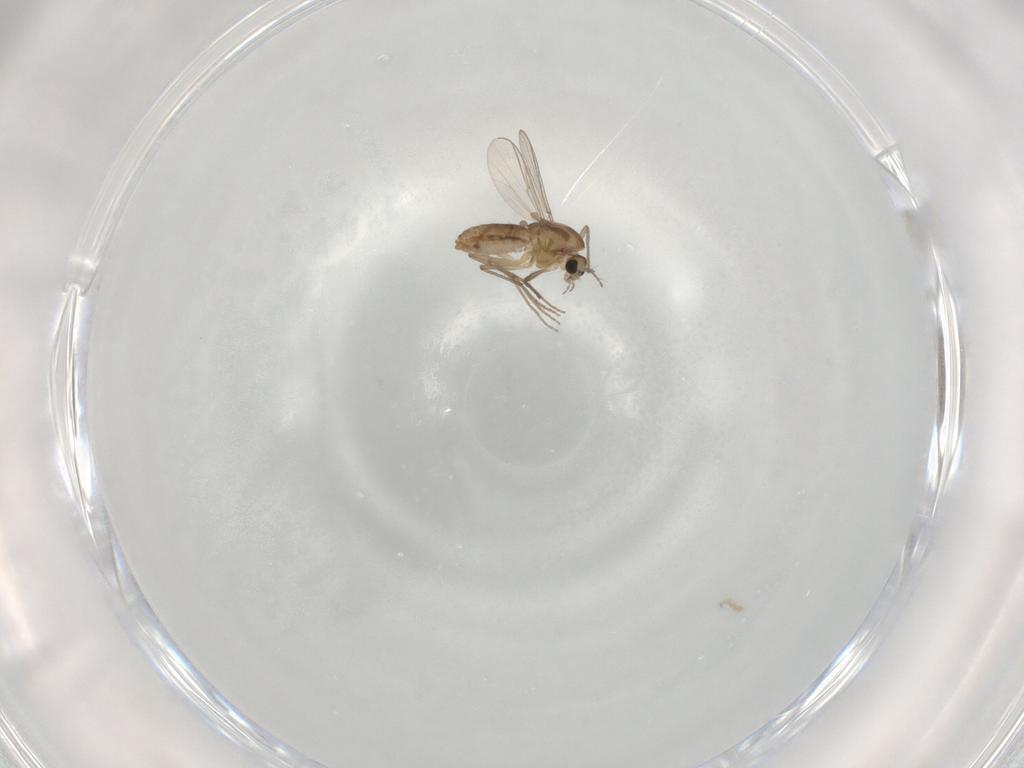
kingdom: Animalia
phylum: Arthropoda
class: Insecta
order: Diptera
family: Chironomidae
